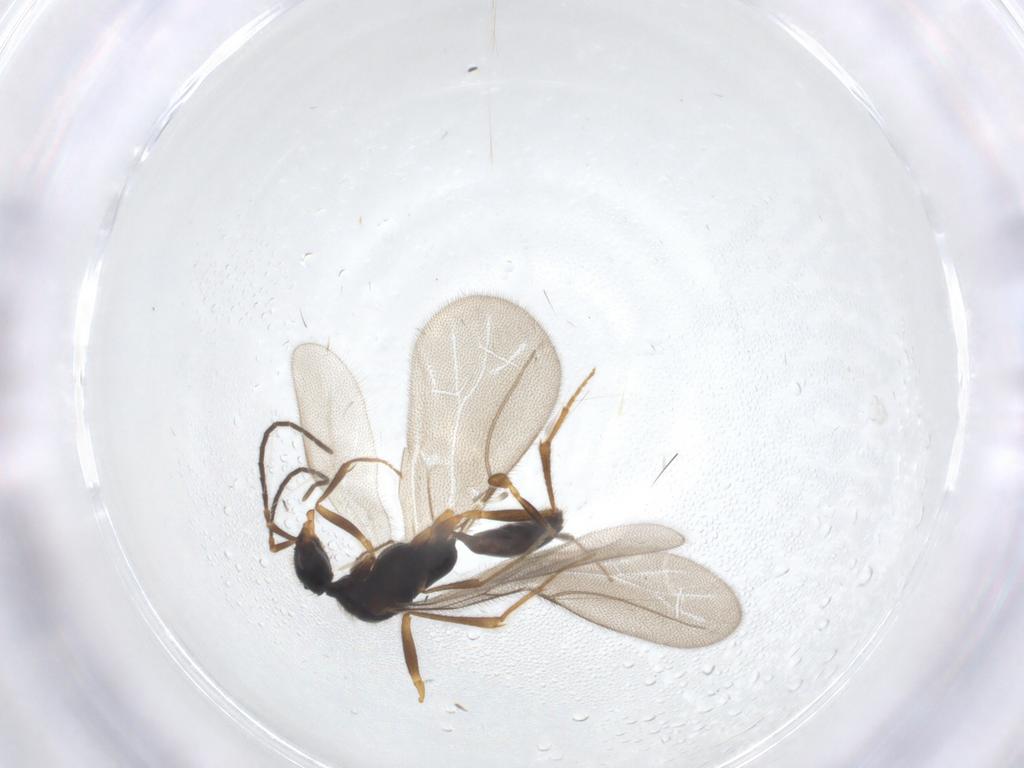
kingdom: Animalia
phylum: Arthropoda
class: Insecta
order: Hymenoptera
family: Bethylidae
